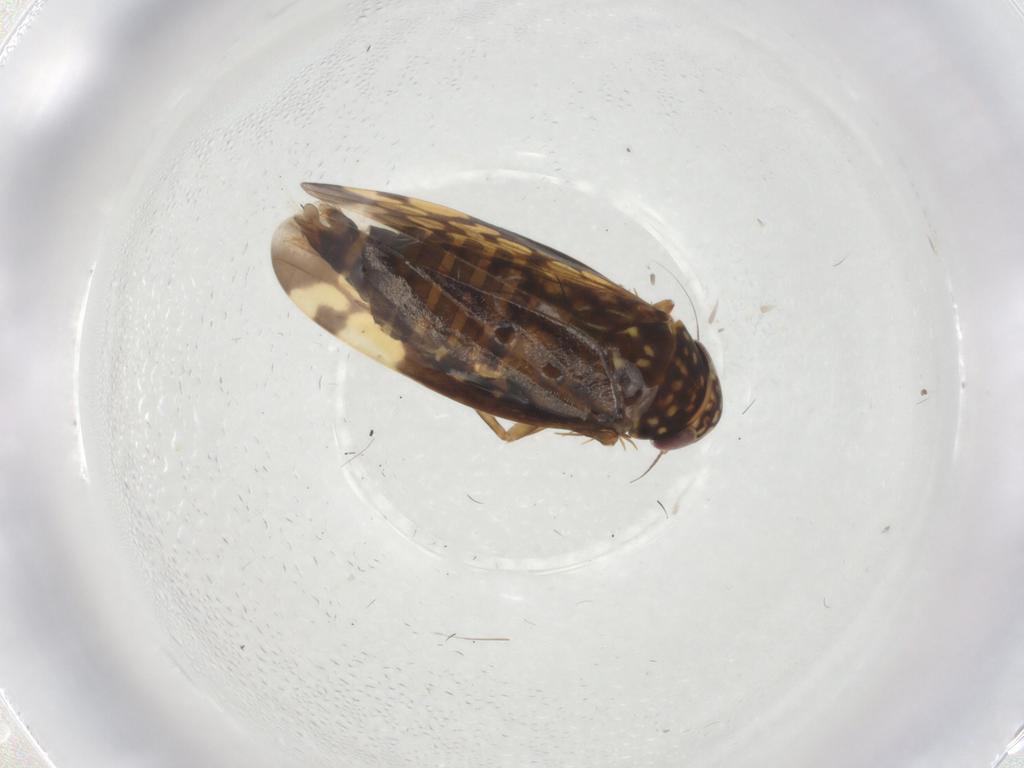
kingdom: Animalia
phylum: Arthropoda
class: Insecta
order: Hemiptera
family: Cicadellidae
